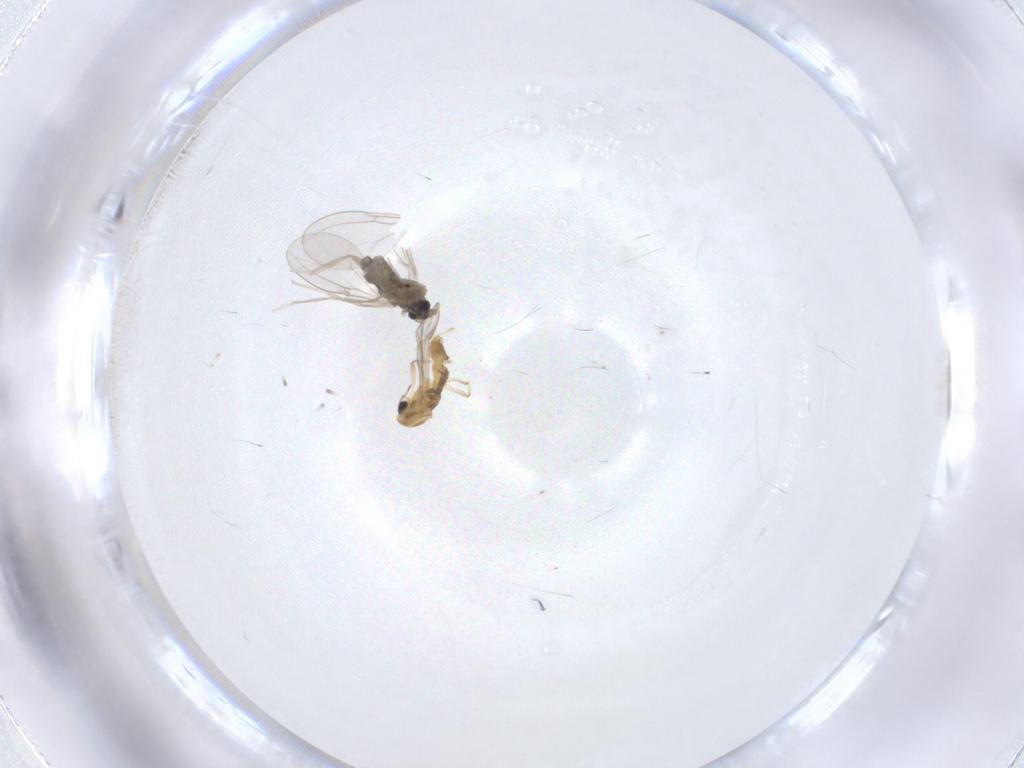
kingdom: Animalia
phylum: Arthropoda
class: Insecta
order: Diptera
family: Cecidomyiidae
